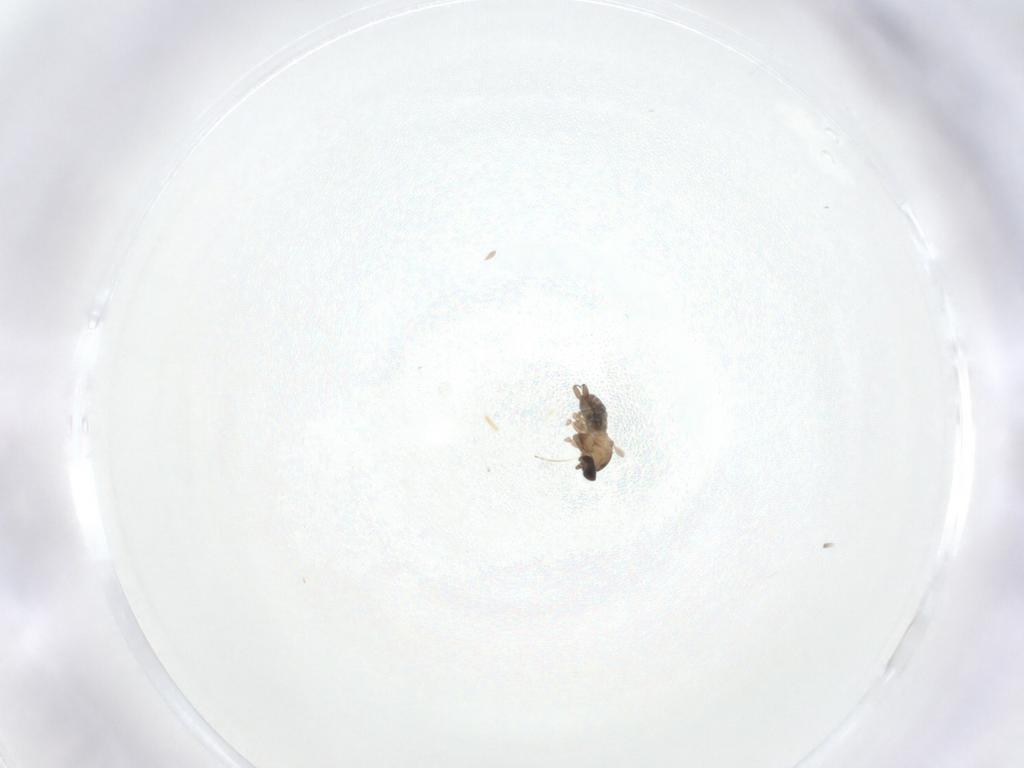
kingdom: Animalia
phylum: Arthropoda
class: Insecta
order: Diptera
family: Cecidomyiidae
